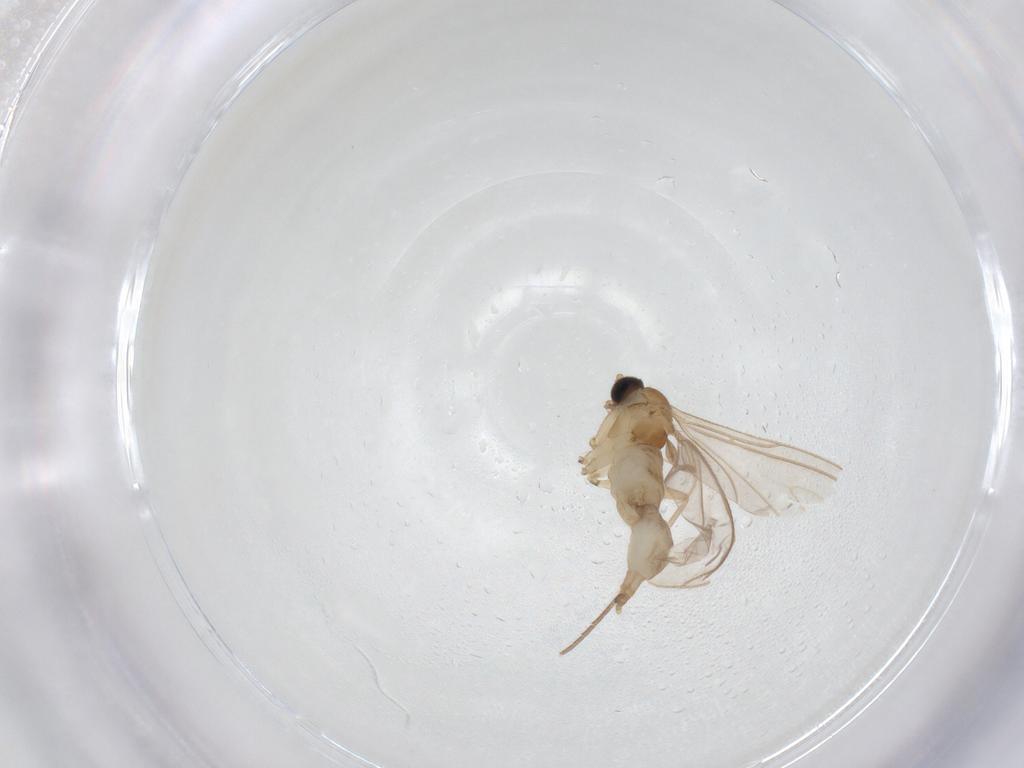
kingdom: Animalia
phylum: Arthropoda
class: Insecta
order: Diptera
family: Sciaridae
